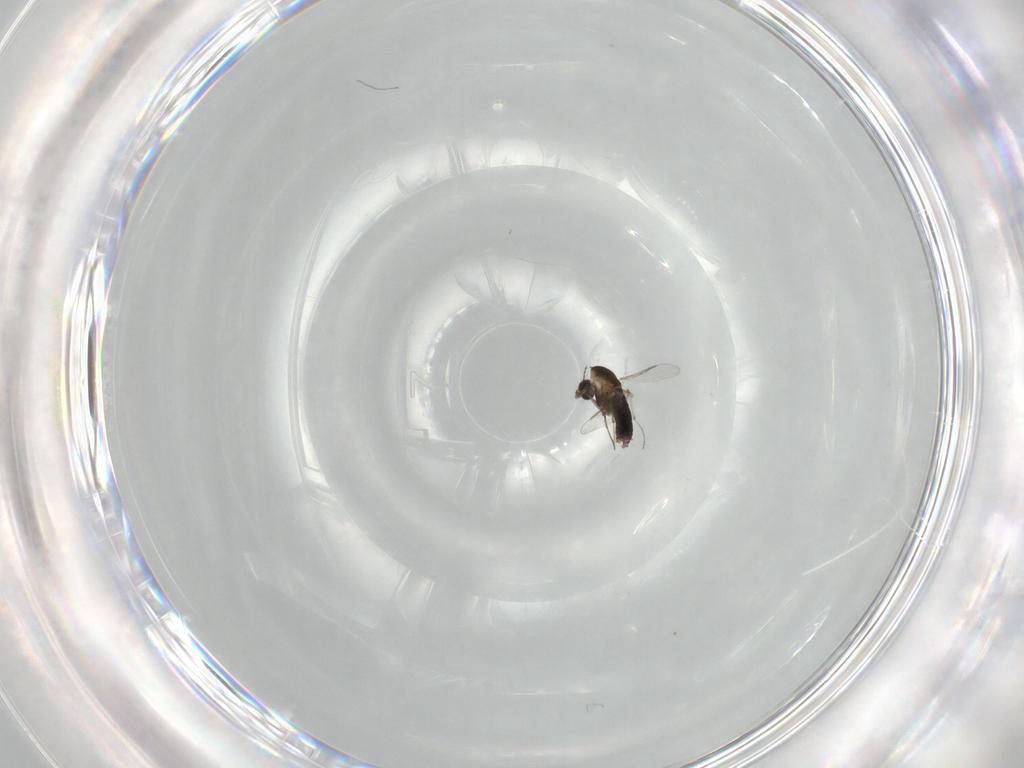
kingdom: Animalia
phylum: Arthropoda
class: Insecta
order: Diptera
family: Chironomidae
